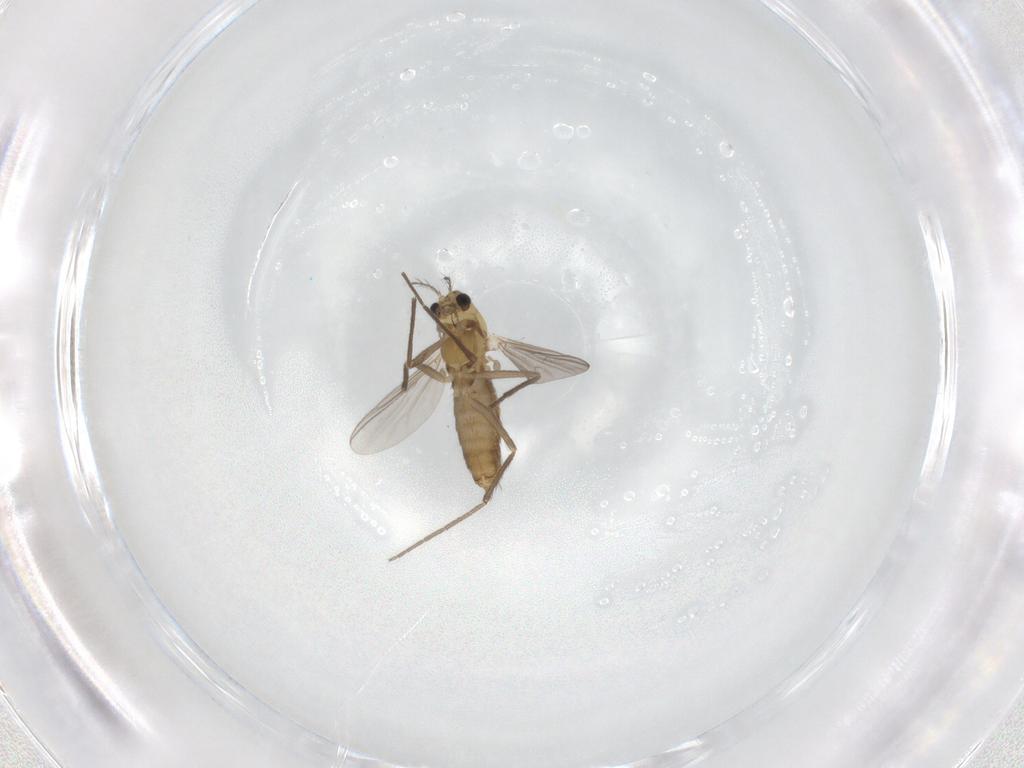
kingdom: Animalia
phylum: Arthropoda
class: Insecta
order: Diptera
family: Chironomidae
